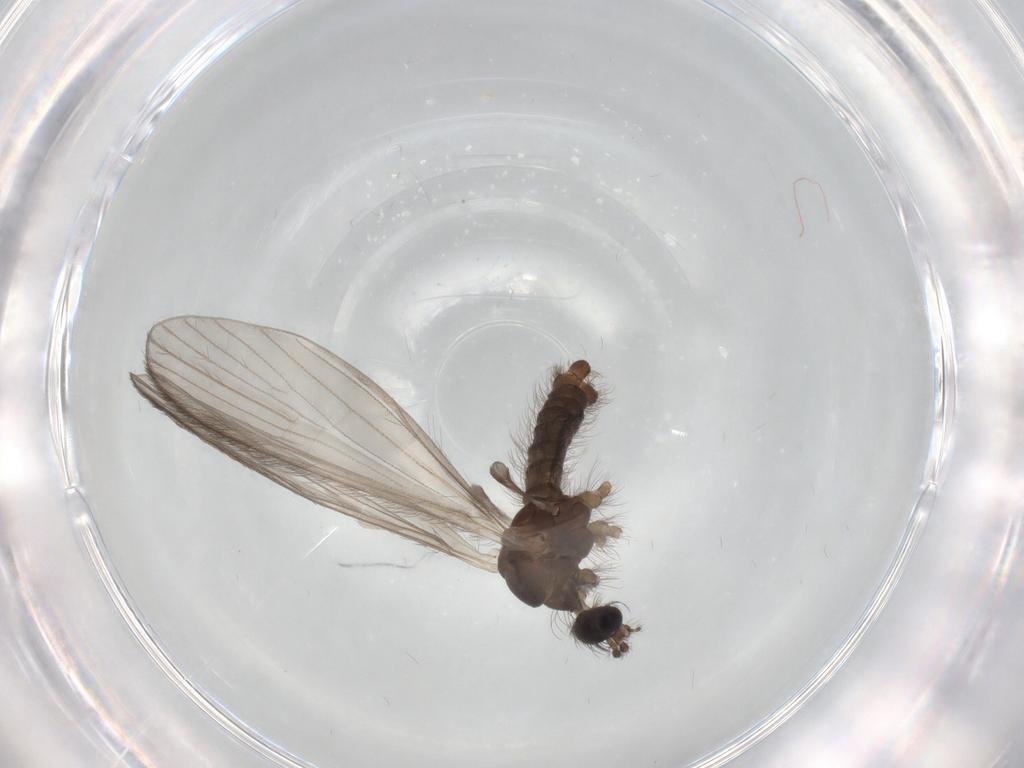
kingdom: Animalia
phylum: Arthropoda
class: Insecta
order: Diptera
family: Limoniidae
